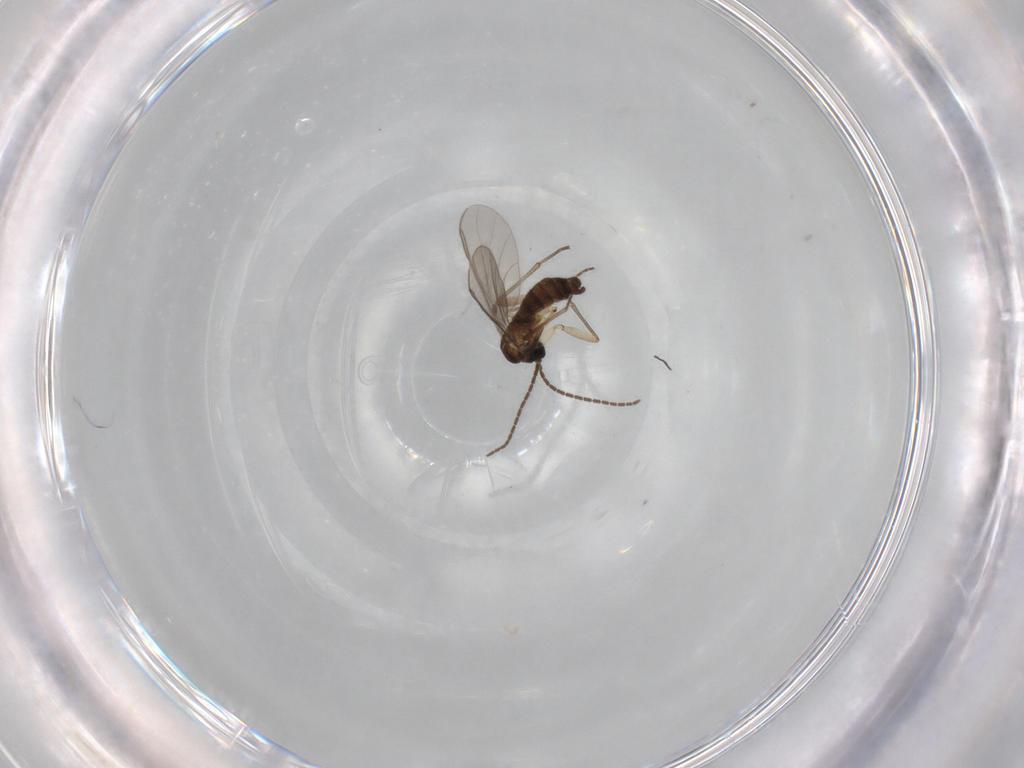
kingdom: Animalia
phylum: Arthropoda
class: Insecta
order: Diptera
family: Sciaridae
